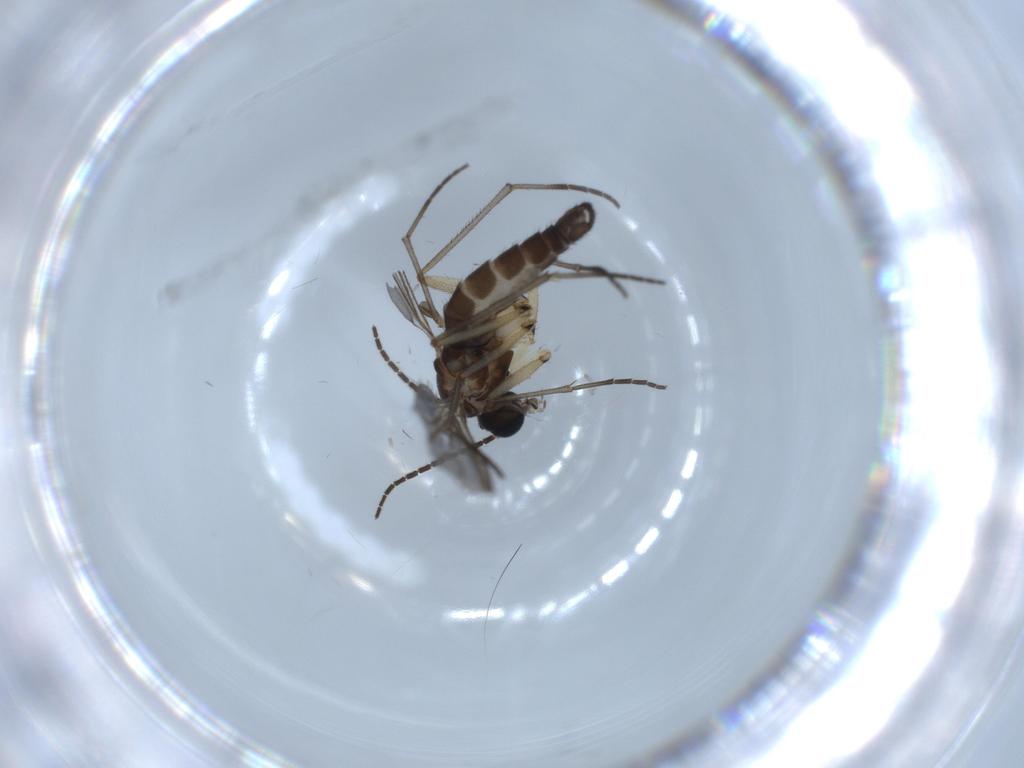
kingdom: Animalia
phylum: Arthropoda
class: Insecta
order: Diptera
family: Sciaridae
